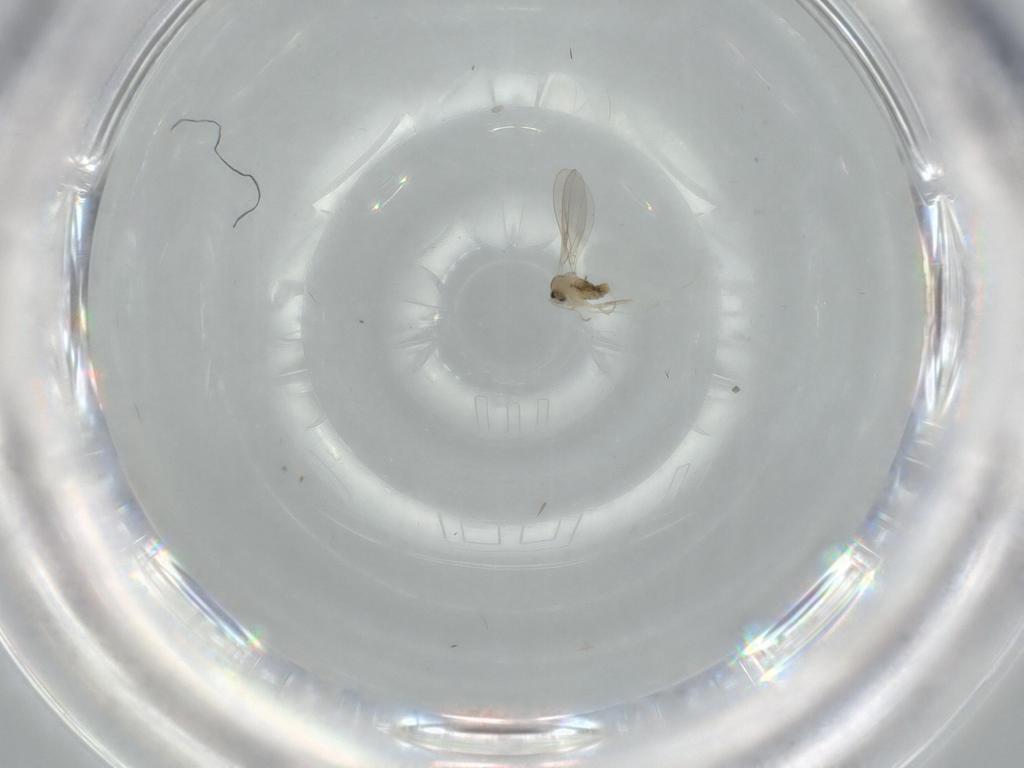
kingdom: Animalia
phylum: Arthropoda
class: Insecta
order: Diptera
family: Cecidomyiidae
